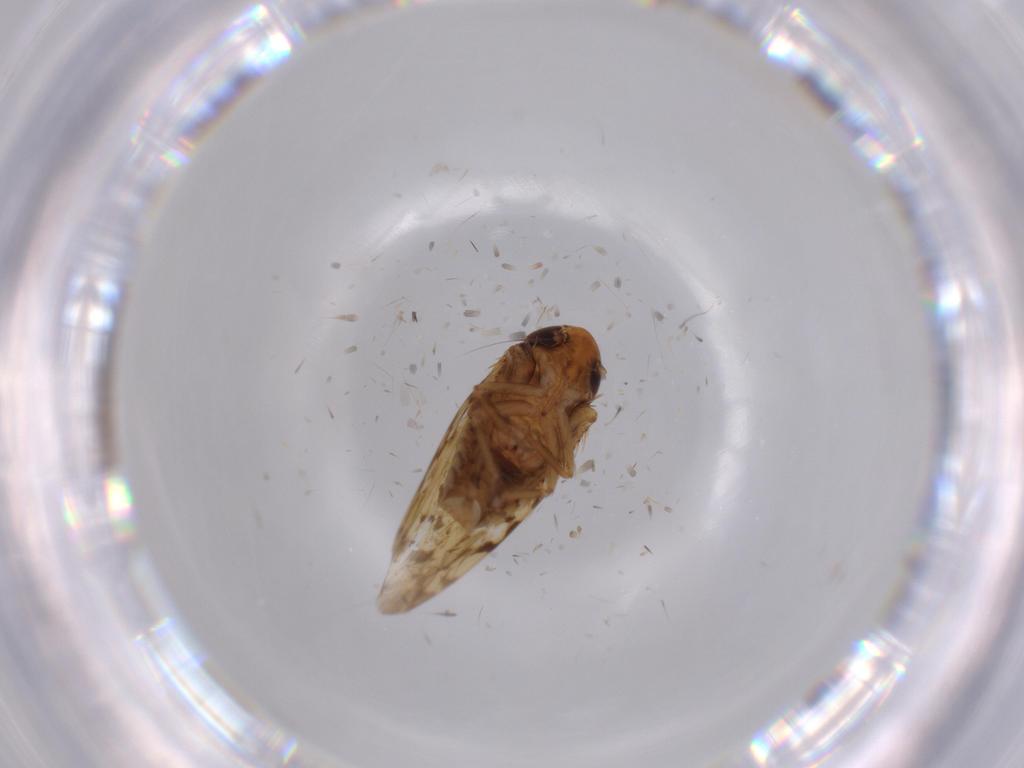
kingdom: Animalia
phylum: Arthropoda
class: Insecta
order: Hemiptera
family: Cicadellidae
